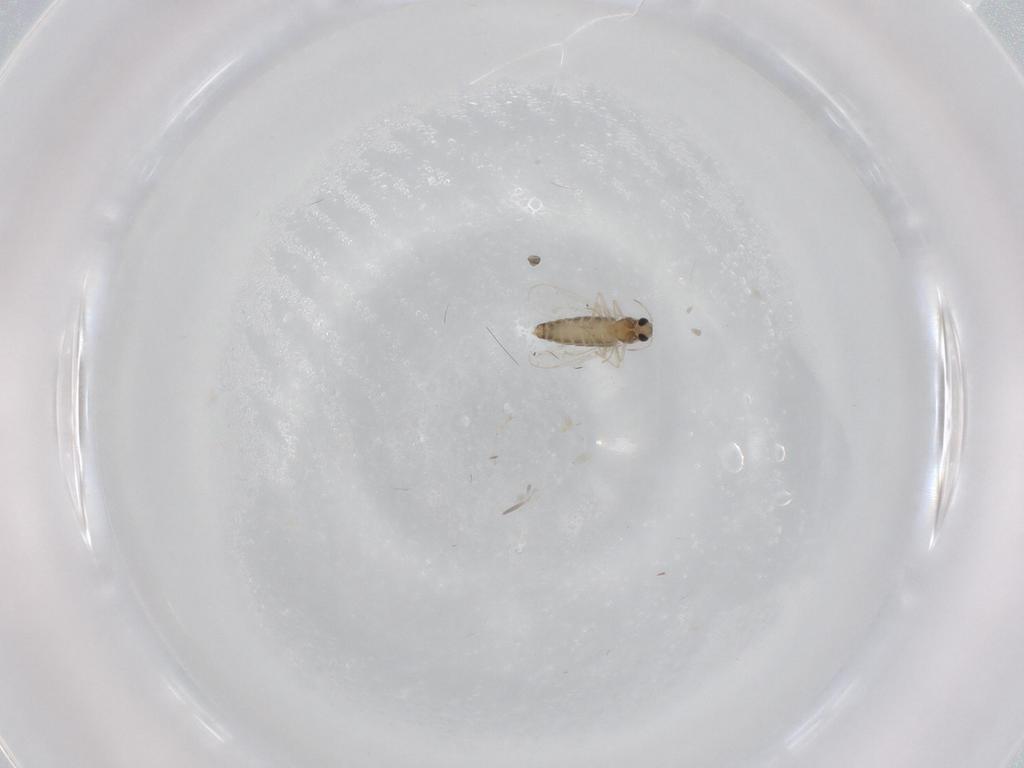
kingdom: Animalia
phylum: Arthropoda
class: Insecta
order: Diptera
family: Chironomidae
